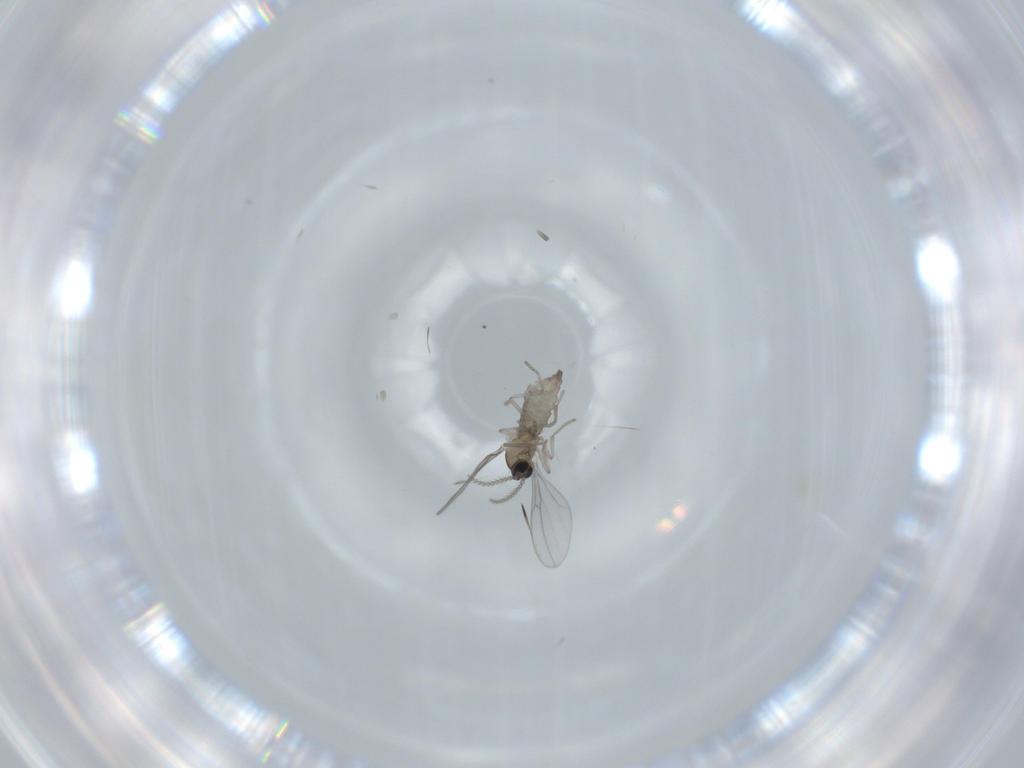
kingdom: Animalia
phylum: Arthropoda
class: Insecta
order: Diptera
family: Cecidomyiidae
